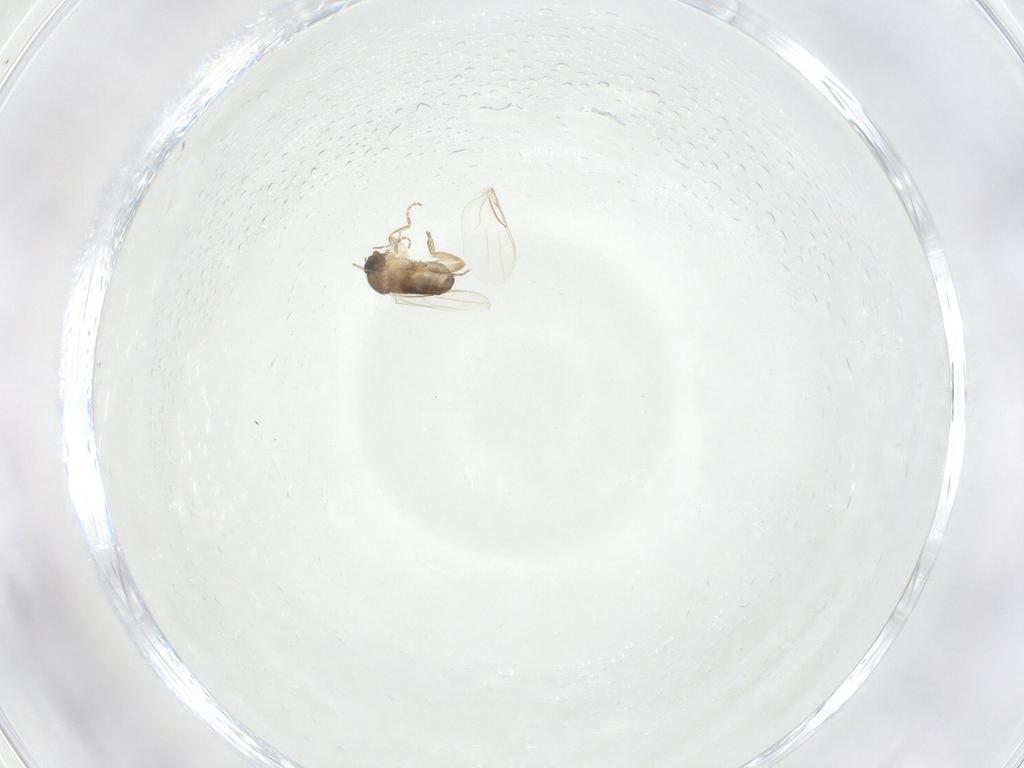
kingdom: Animalia
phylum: Arthropoda
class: Insecta
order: Diptera
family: Phoridae
